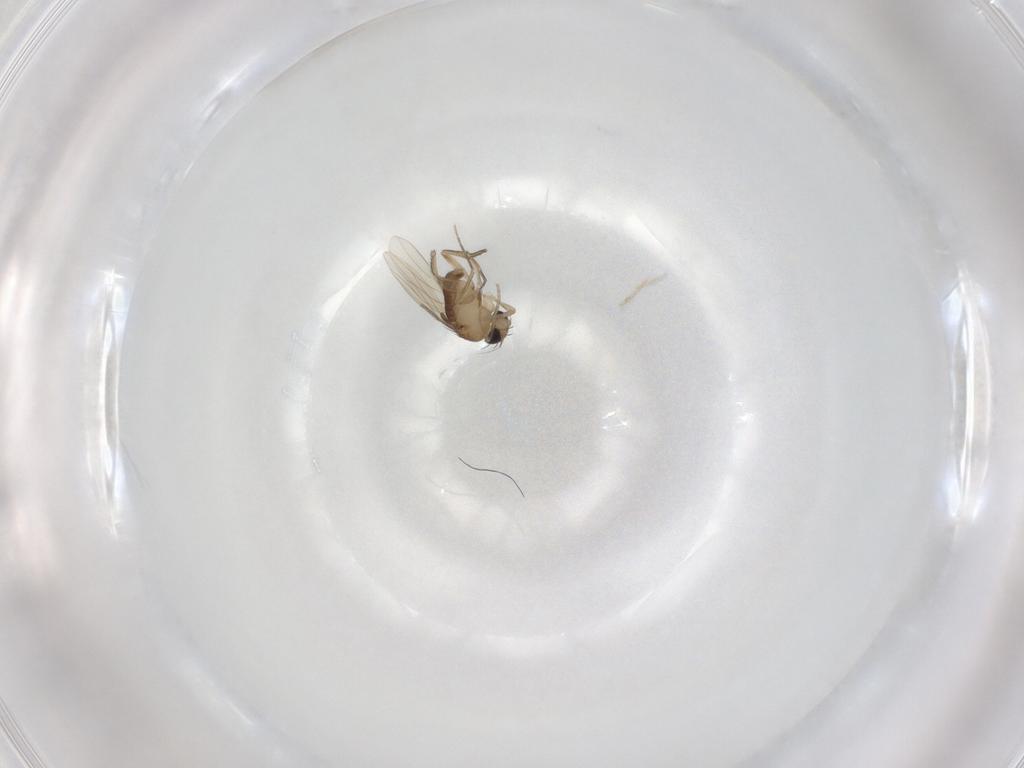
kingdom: Animalia
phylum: Arthropoda
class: Insecta
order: Diptera
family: Phoridae
